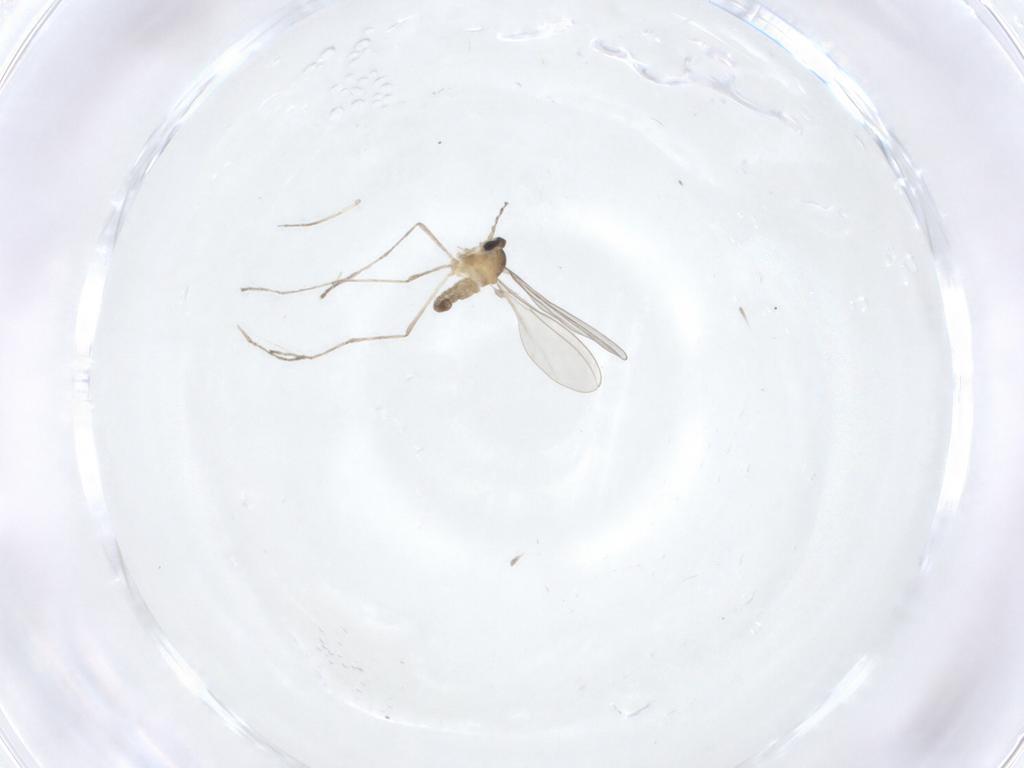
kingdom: Animalia
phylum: Arthropoda
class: Insecta
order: Diptera
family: Cecidomyiidae
